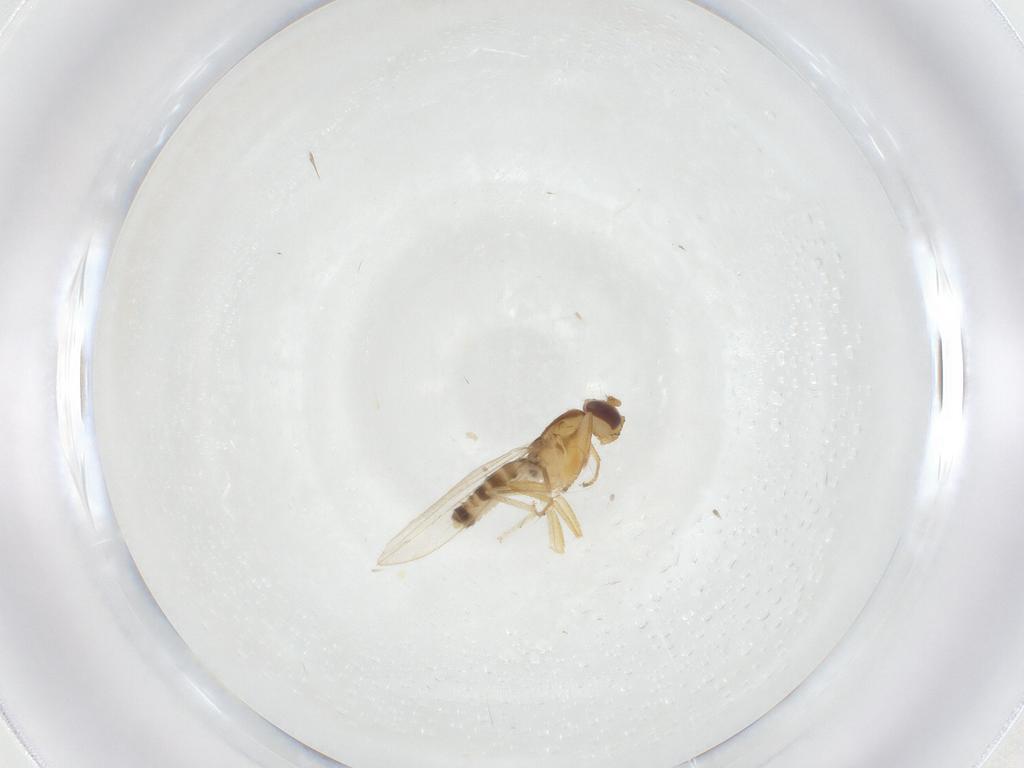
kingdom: Animalia
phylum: Arthropoda
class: Insecta
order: Diptera
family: Periscelididae
